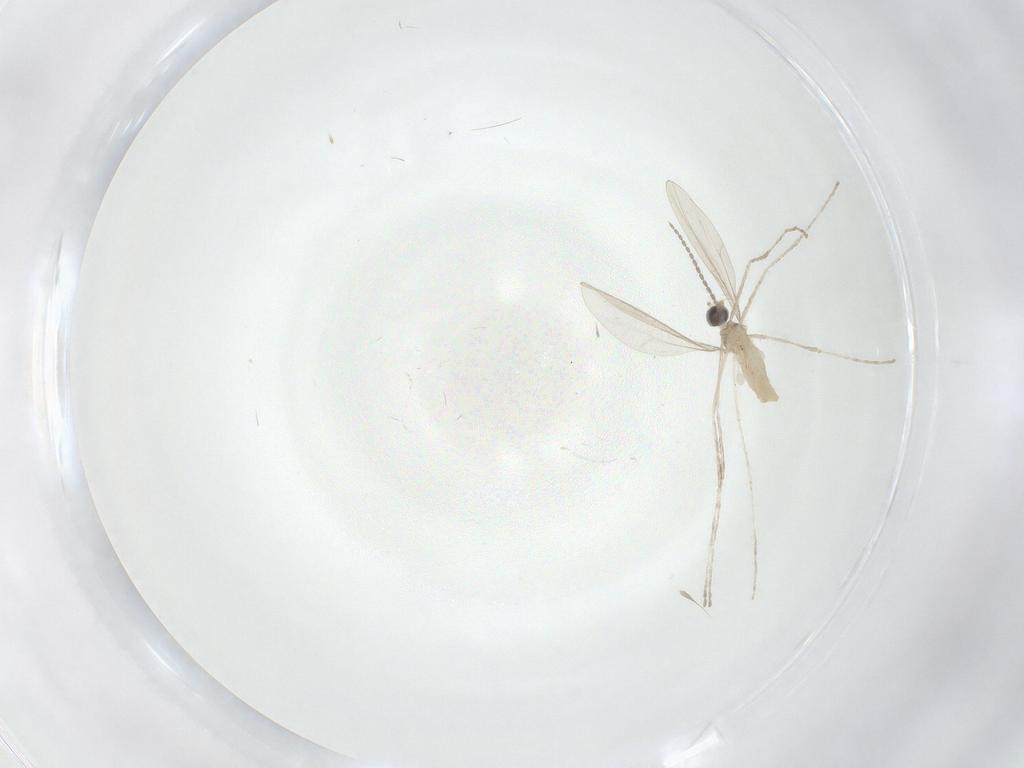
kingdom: Animalia
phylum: Arthropoda
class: Insecta
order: Diptera
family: Cecidomyiidae
